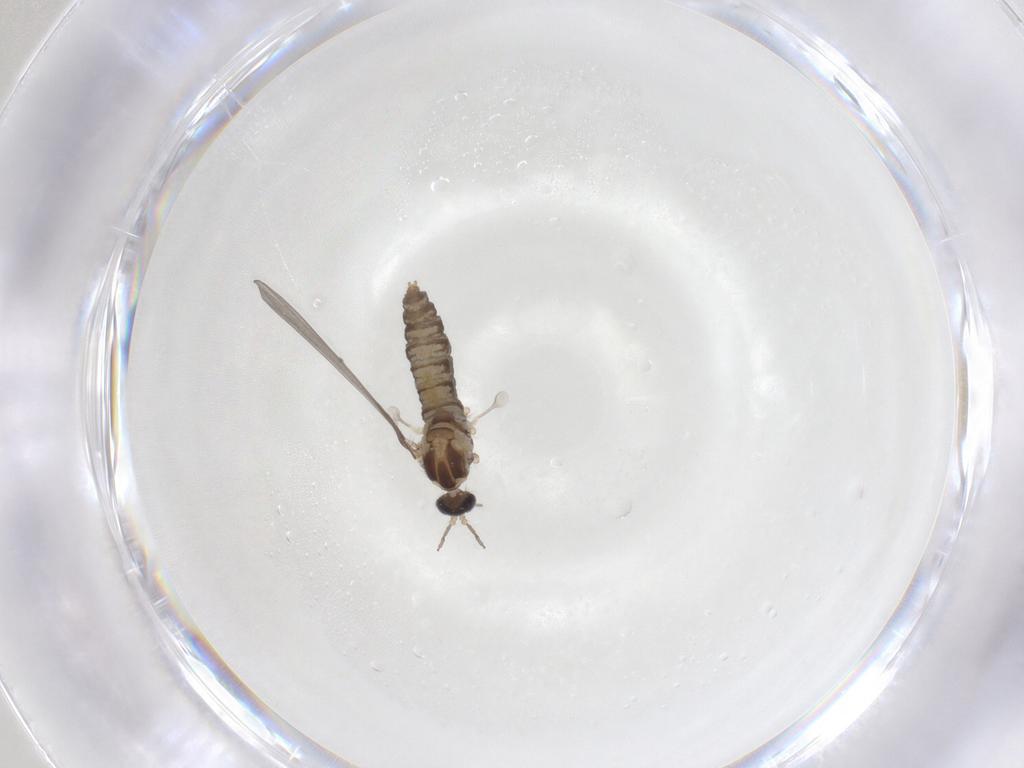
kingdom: Animalia
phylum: Arthropoda
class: Insecta
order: Diptera
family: Cecidomyiidae
